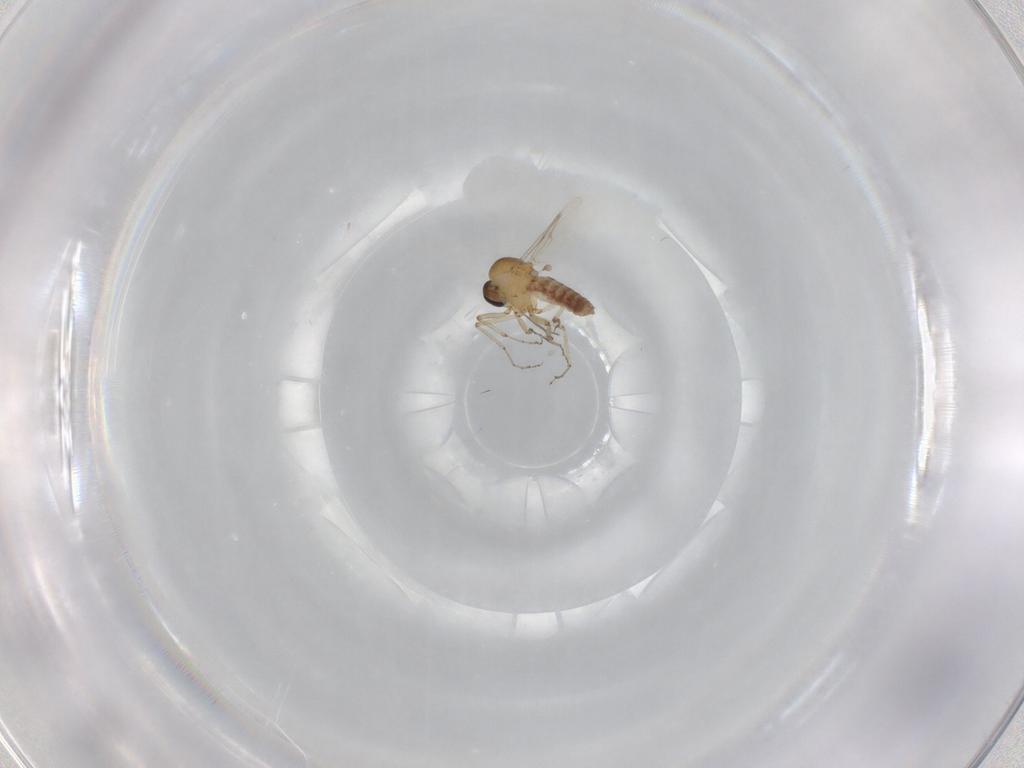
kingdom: Animalia
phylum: Arthropoda
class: Insecta
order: Diptera
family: Ceratopogonidae
